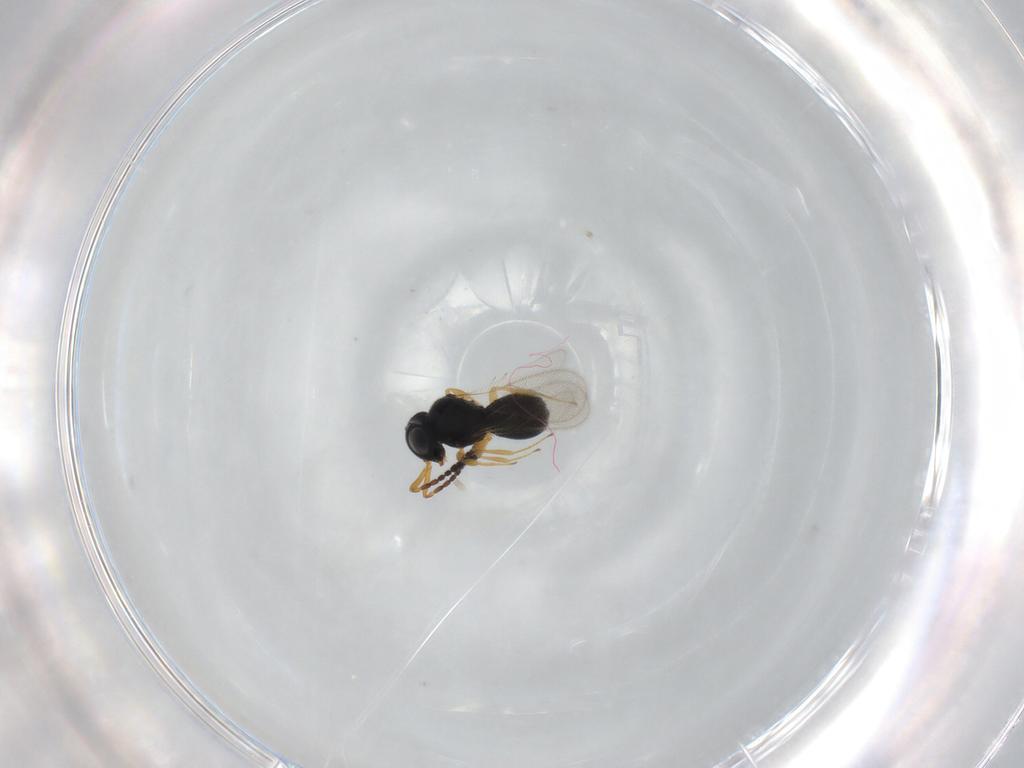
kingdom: Animalia
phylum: Arthropoda
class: Insecta
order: Hymenoptera
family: Scelionidae
